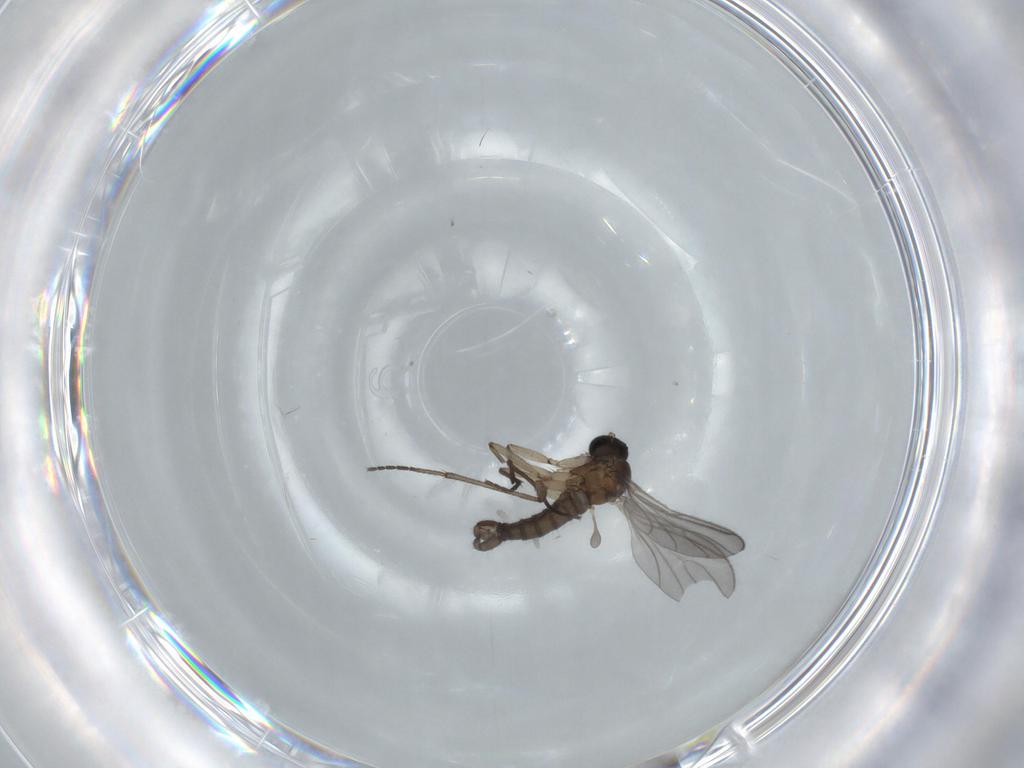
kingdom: Animalia
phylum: Arthropoda
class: Insecta
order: Diptera
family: Sciaridae
